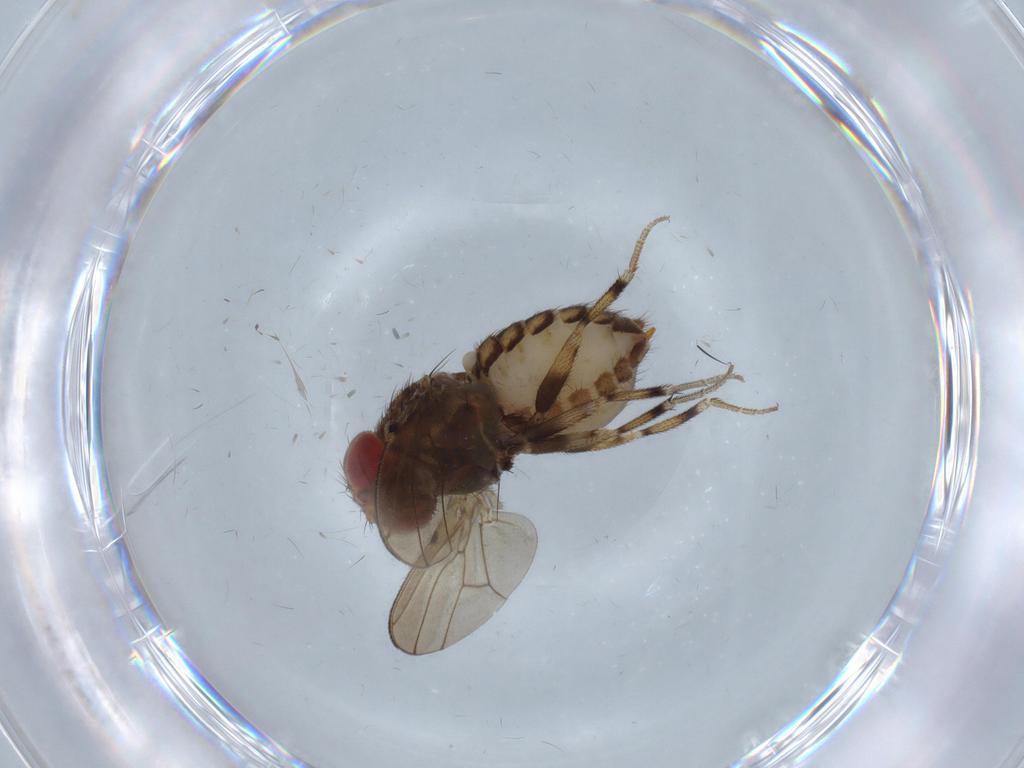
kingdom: Animalia
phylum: Arthropoda
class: Insecta
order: Diptera
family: Drosophilidae
